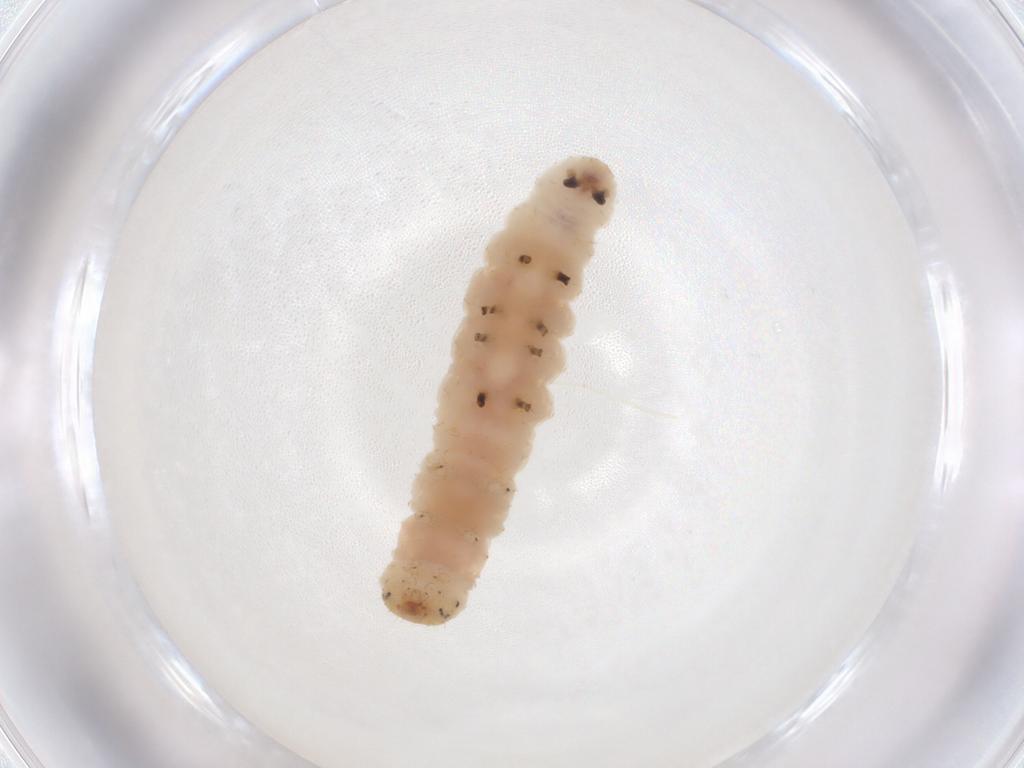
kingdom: Animalia
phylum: Arthropoda
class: Insecta
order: Lepidoptera
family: Crambidae
